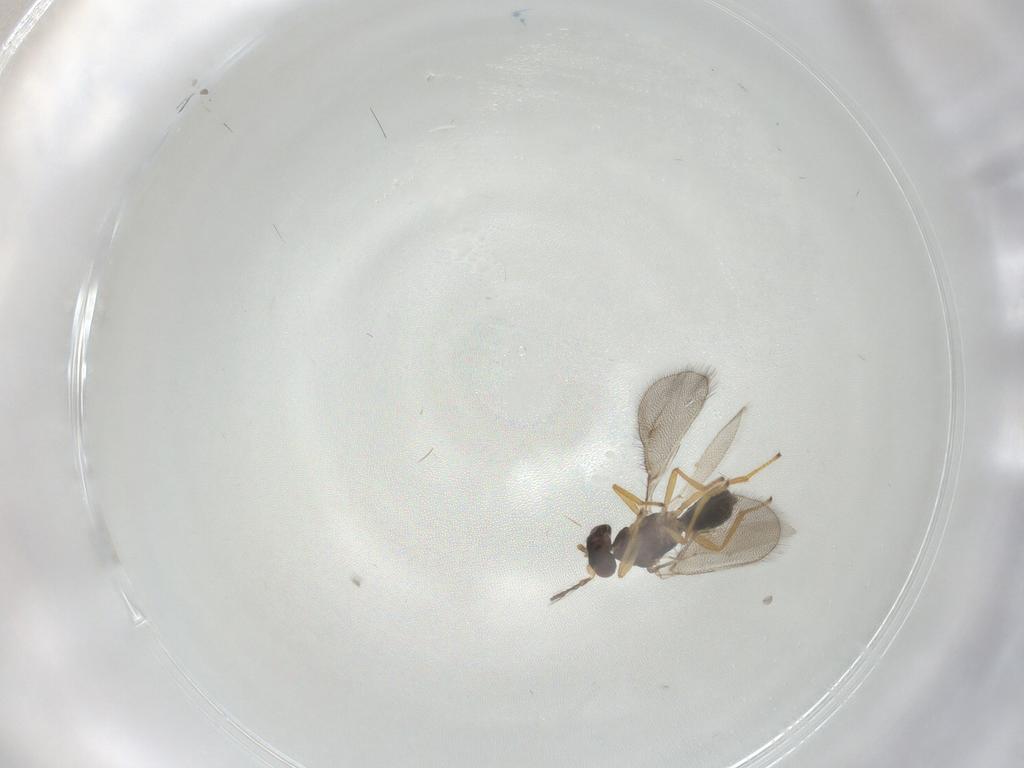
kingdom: Animalia
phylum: Arthropoda
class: Insecta
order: Hymenoptera
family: Eulophidae
